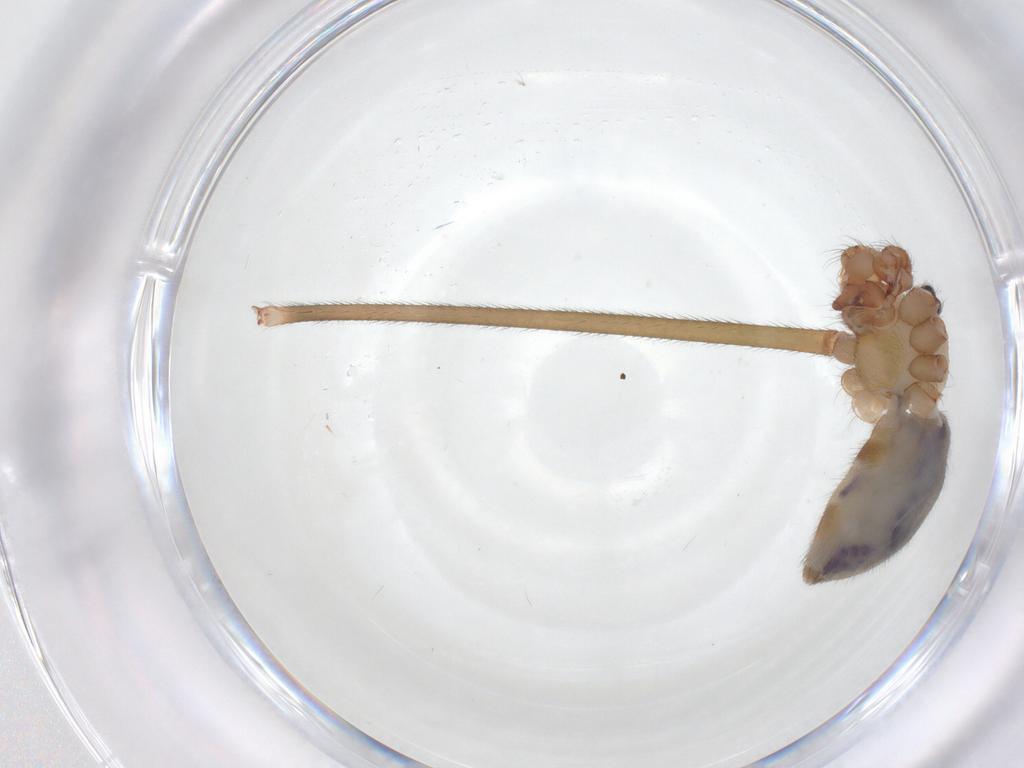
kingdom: Animalia
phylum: Arthropoda
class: Arachnida
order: Araneae
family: Pholcidae
